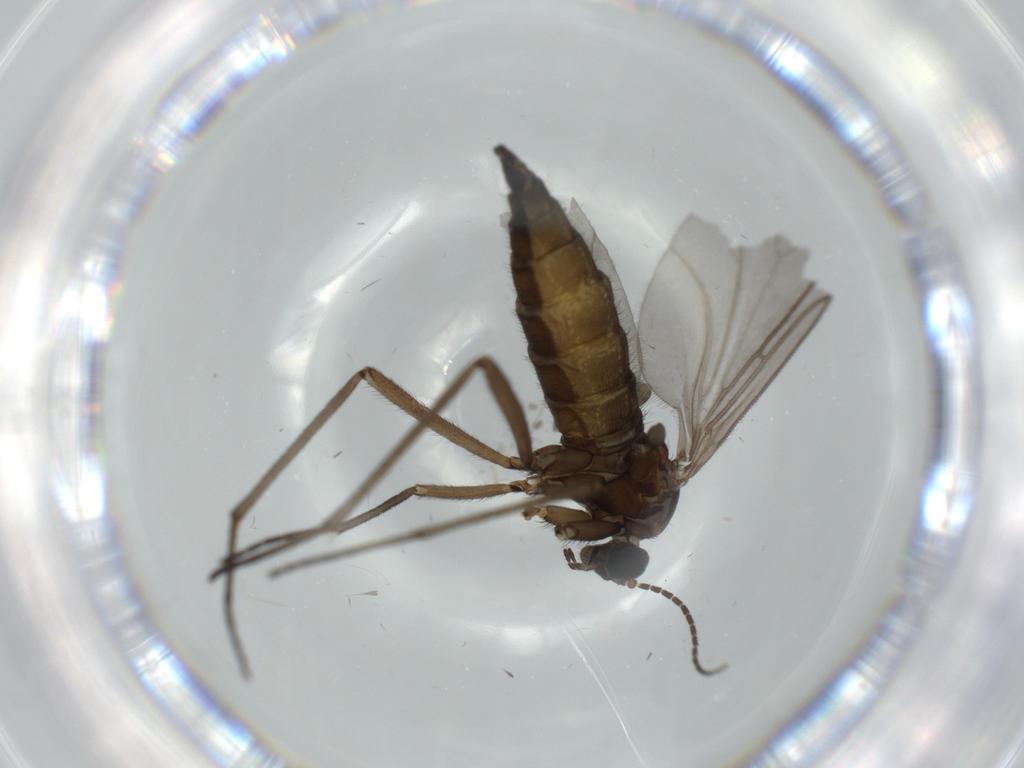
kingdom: Animalia
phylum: Arthropoda
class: Insecta
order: Diptera
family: Sciaridae
